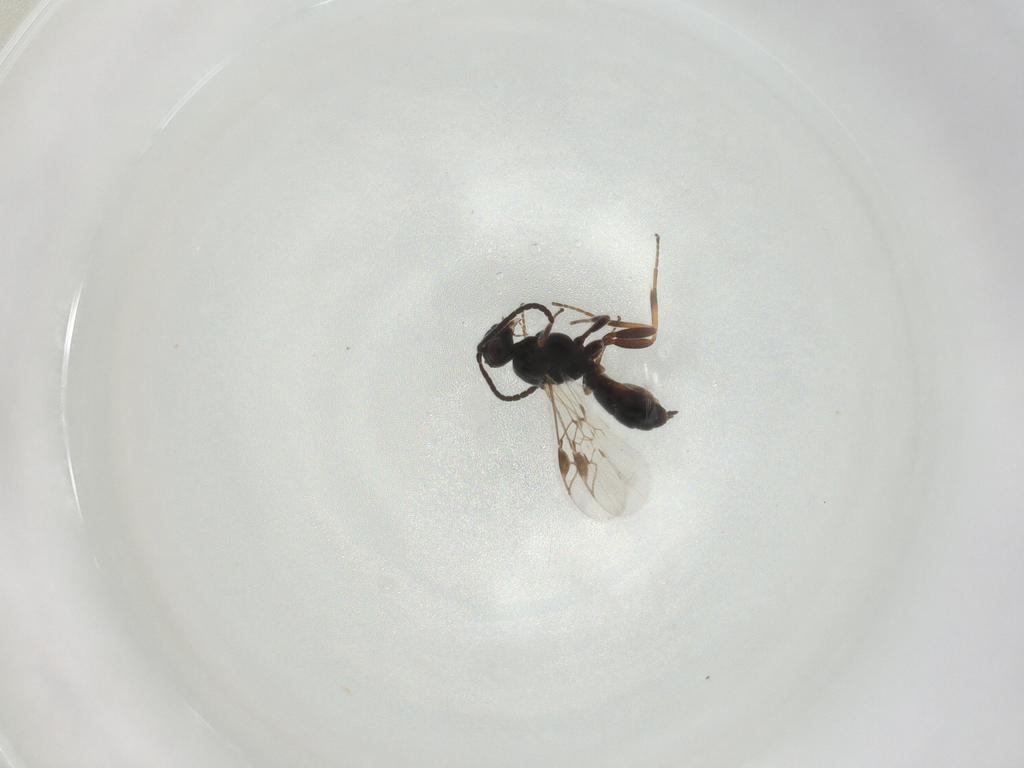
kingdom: Animalia
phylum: Arthropoda
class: Insecta
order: Hymenoptera
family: Braconidae
